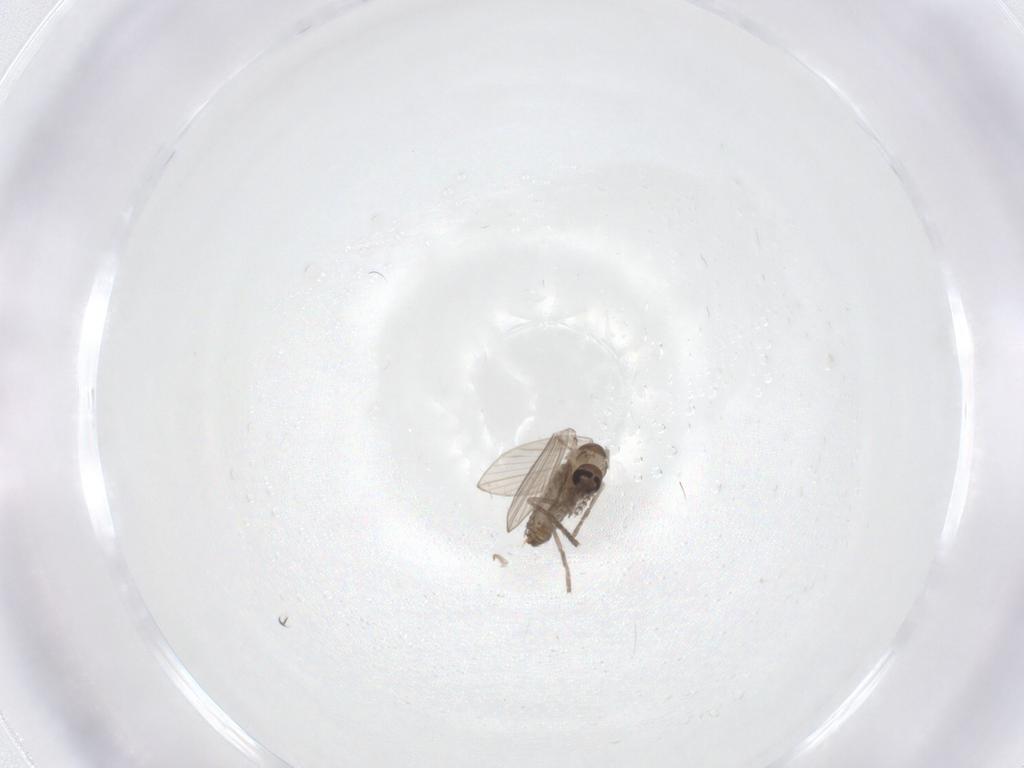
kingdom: Animalia
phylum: Arthropoda
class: Insecta
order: Diptera
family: Psychodidae
